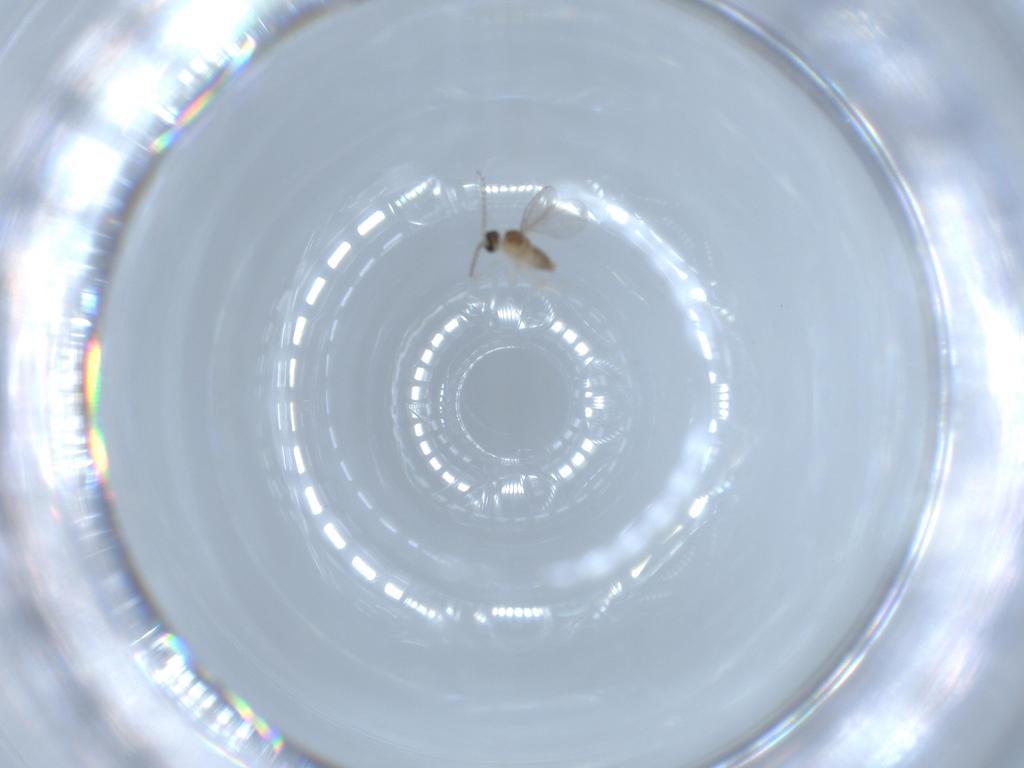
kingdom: Animalia
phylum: Arthropoda
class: Insecta
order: Diptera
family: Cecidomyiidae
